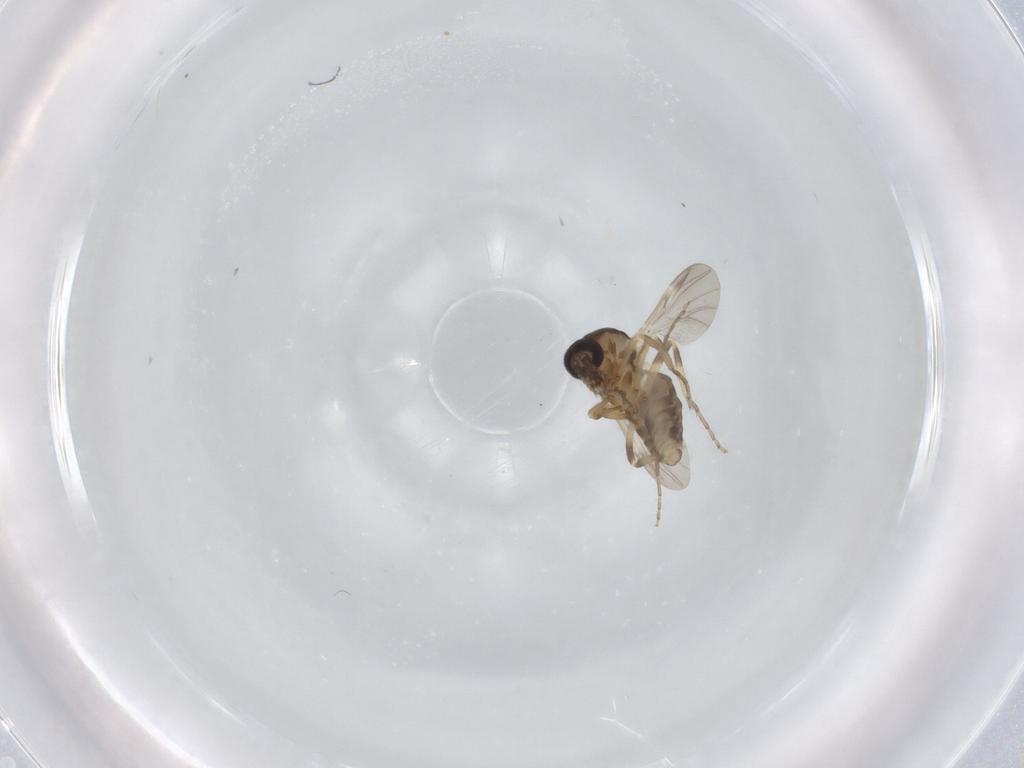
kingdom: Animalia
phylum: Arthropoda
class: Insecta
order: Diptera
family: Ceratopogonidae
